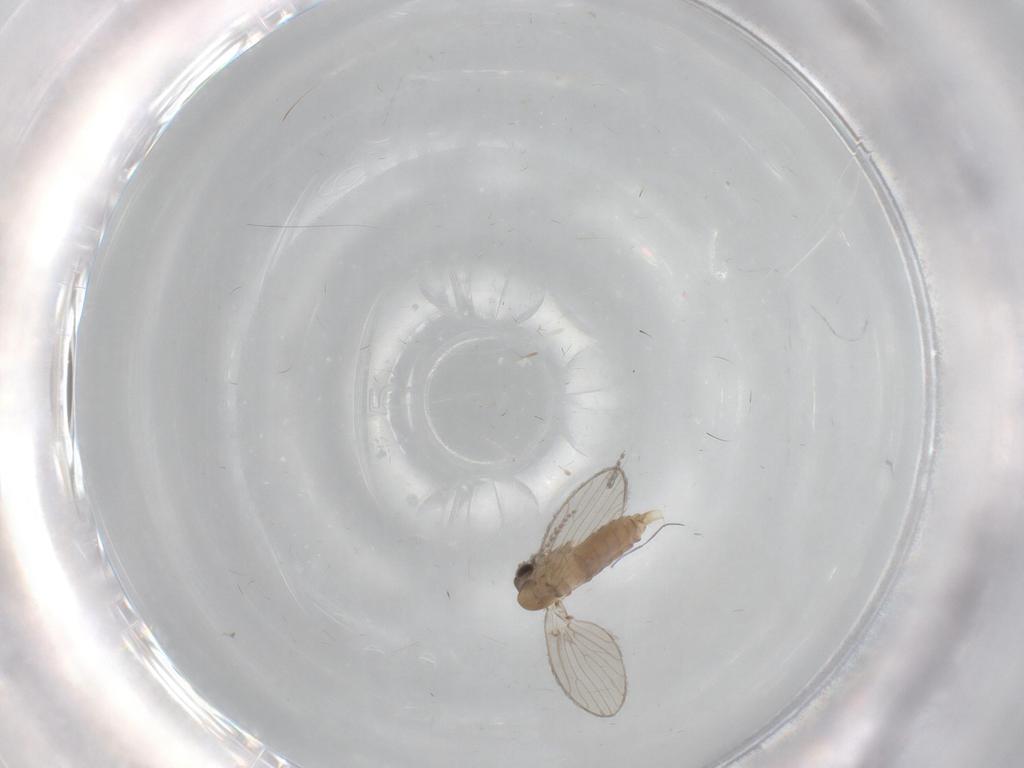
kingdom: Animalia
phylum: Arthropoda
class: Insecta
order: Diptera
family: Psychodidae
